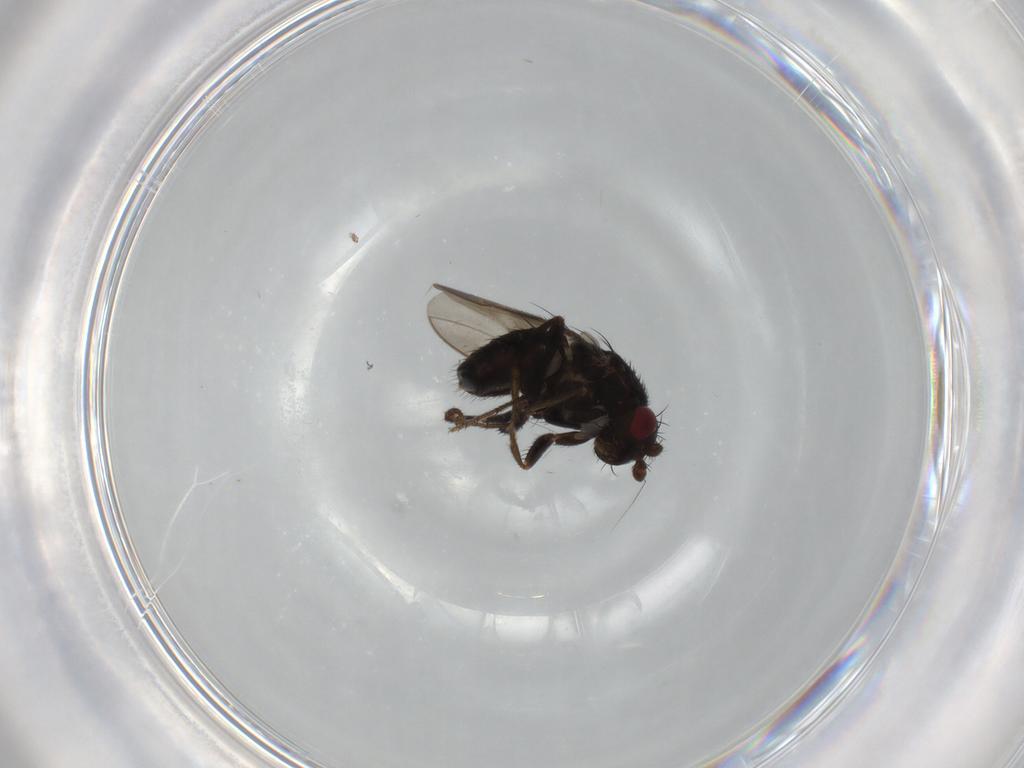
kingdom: Animalia
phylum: Arthropoda
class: Insecta
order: Diptera
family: Sphaeroceridae
